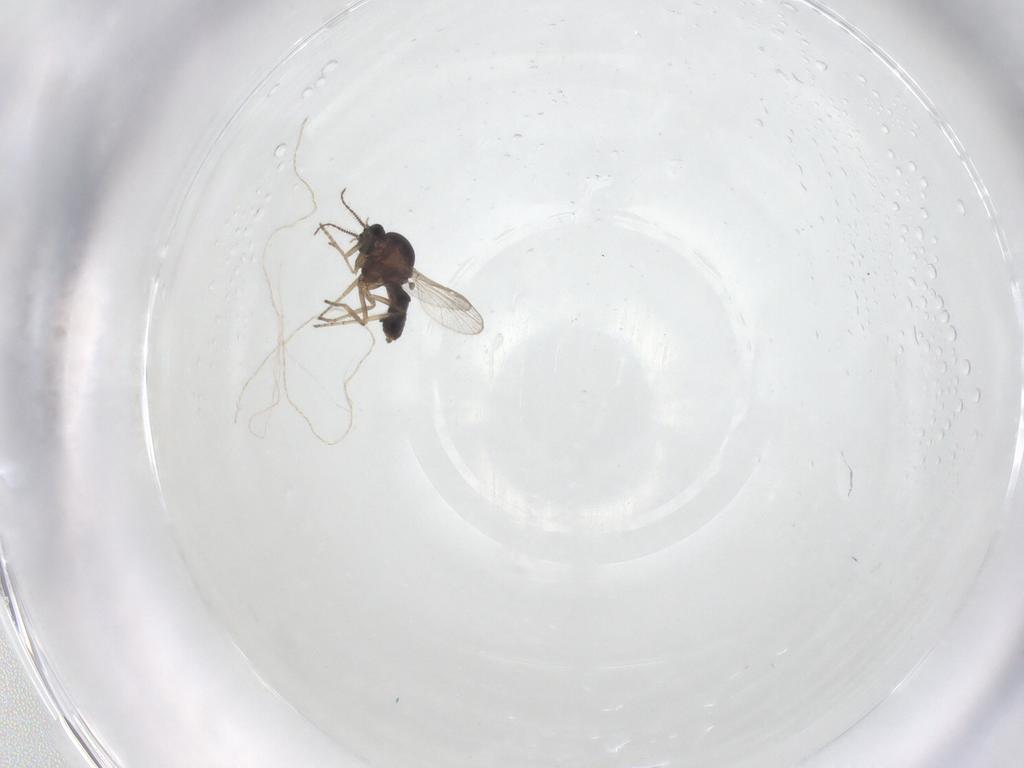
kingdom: Animalia
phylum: Arthropoda
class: Insecta
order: Diptera
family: Ceratopogonidae
